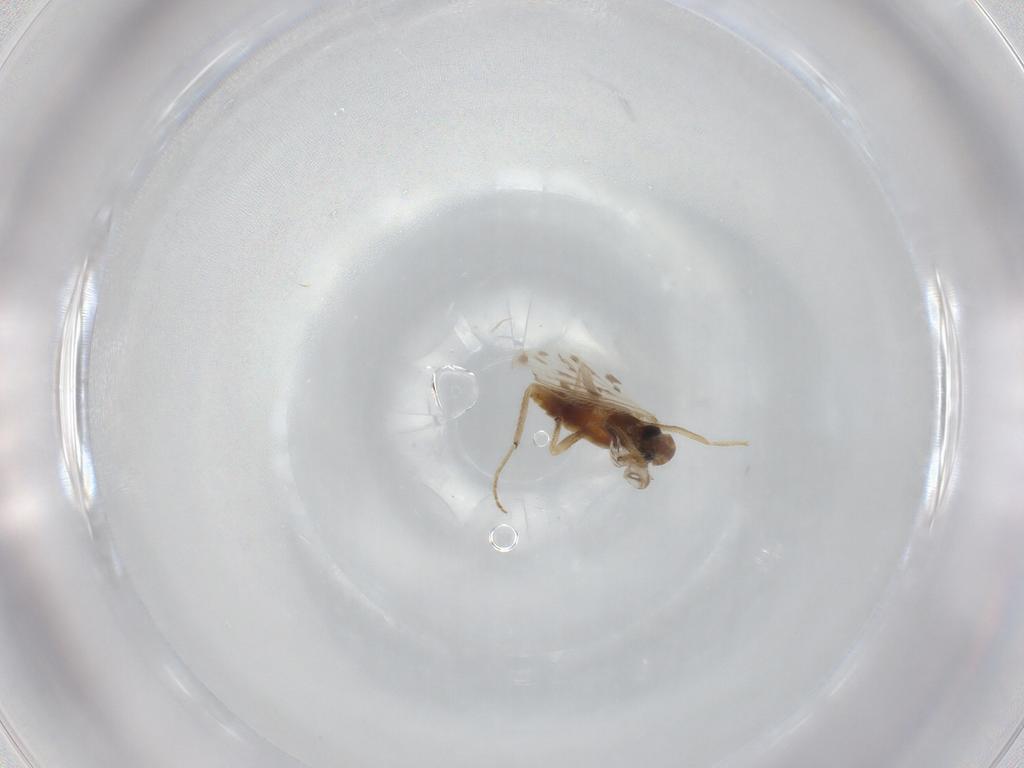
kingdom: Animalia
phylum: Arthropoda
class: Insecta
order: Diptera
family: Chironomidae
